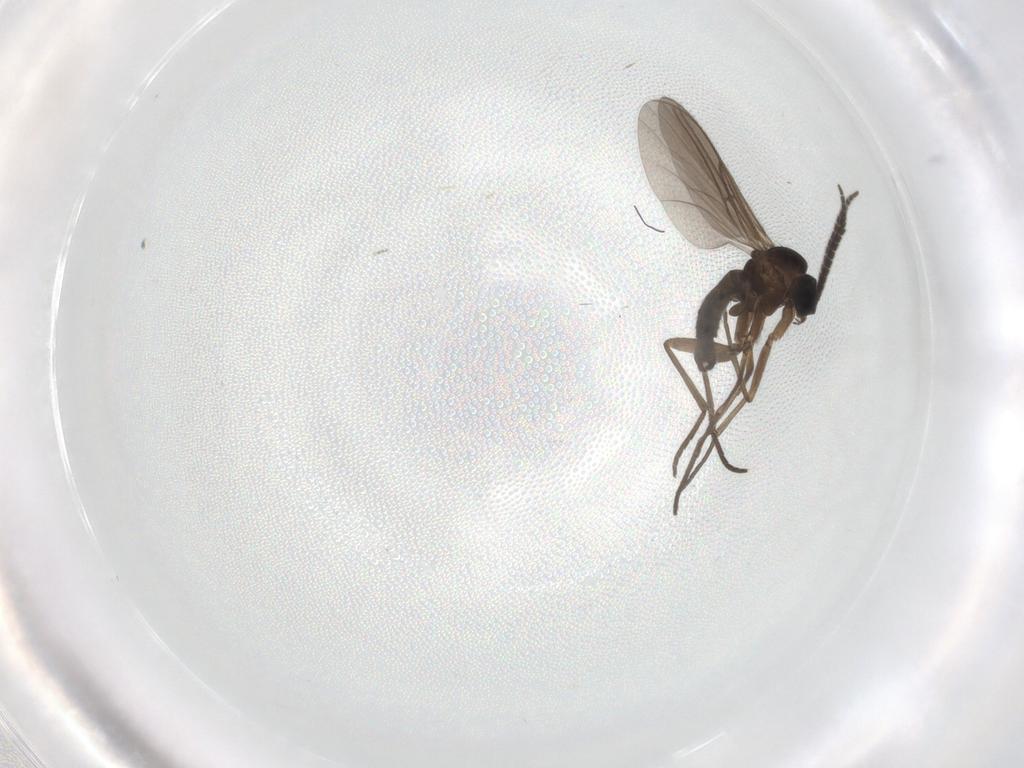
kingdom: Animalia
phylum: Arthropoda
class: Insecta
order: Diptera
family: Sciaridae
